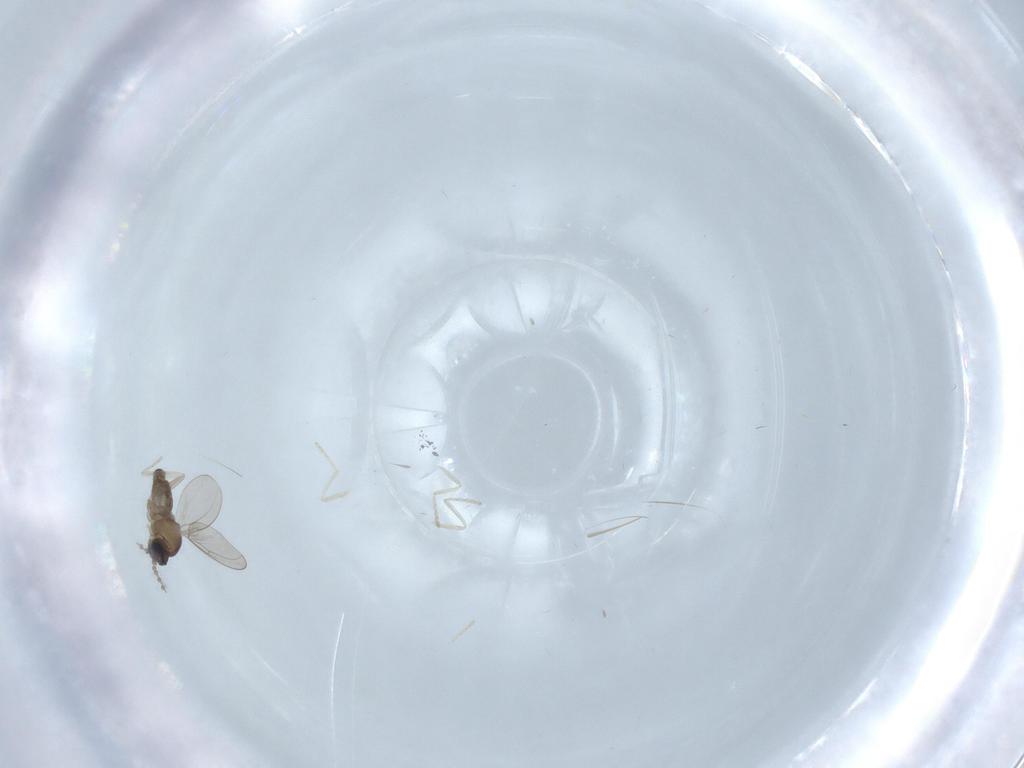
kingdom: Animalia
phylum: Arthropoda
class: Insecta
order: Diptera
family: Cecidomyiidae
